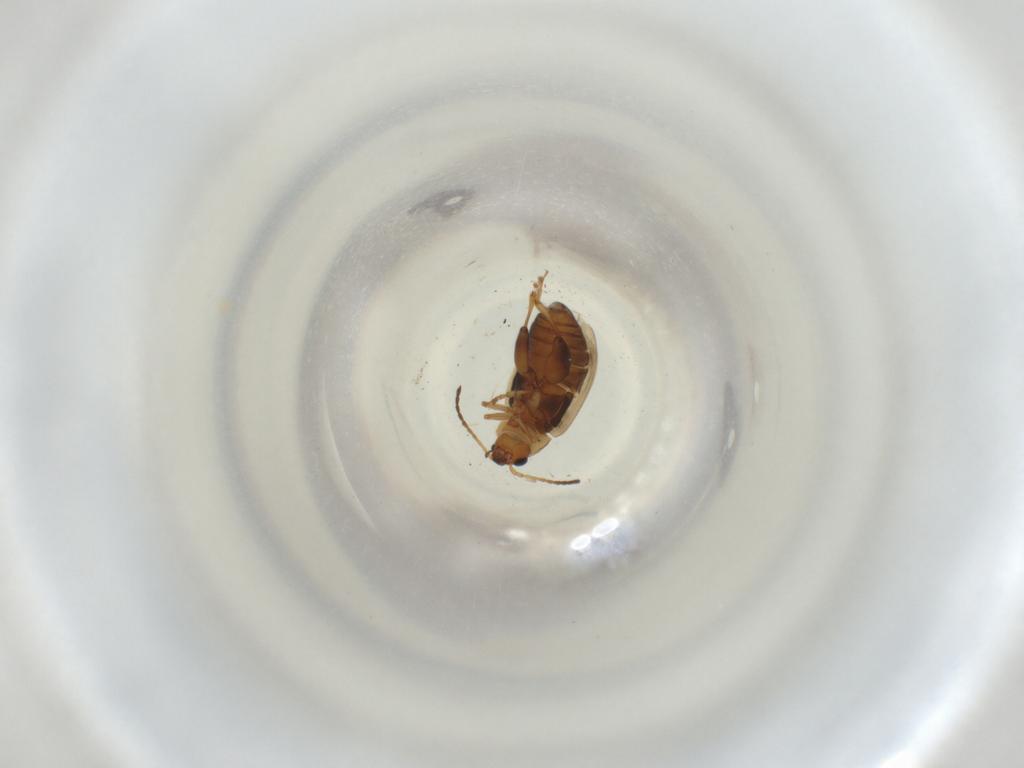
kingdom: Animalia
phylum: Arthropoda
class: Insecta
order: Coleoptera
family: Chrysomelidae
